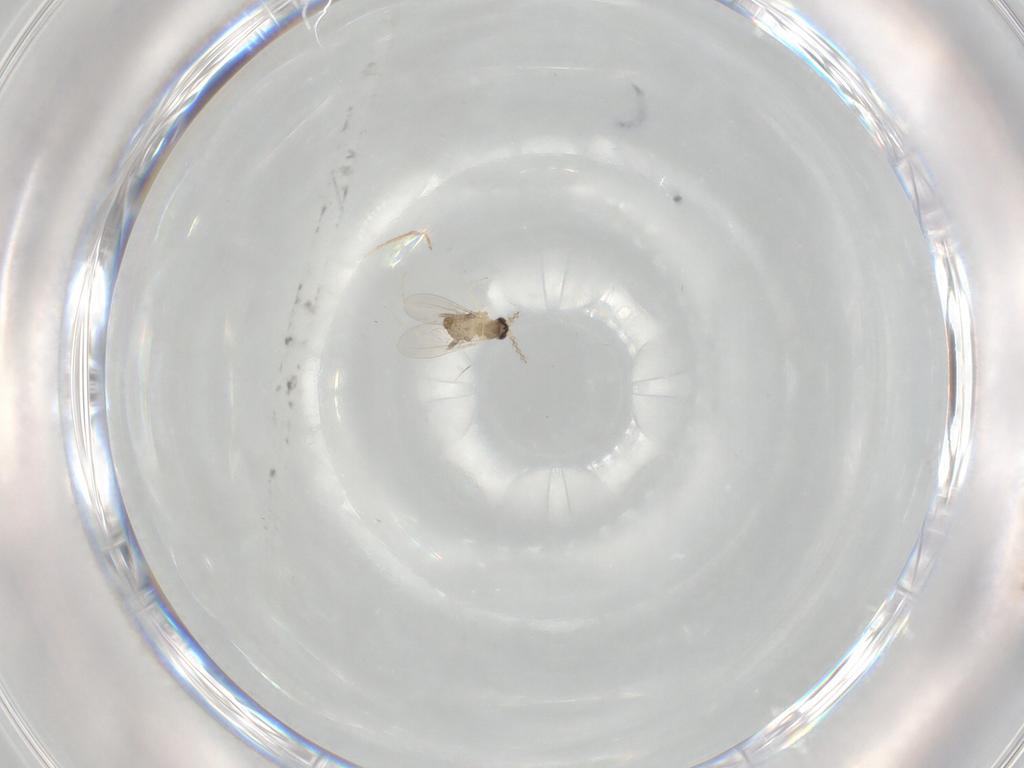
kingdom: Animalia
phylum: Arthropoda
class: Insecta
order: Diptera
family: Cecidomyiidae
